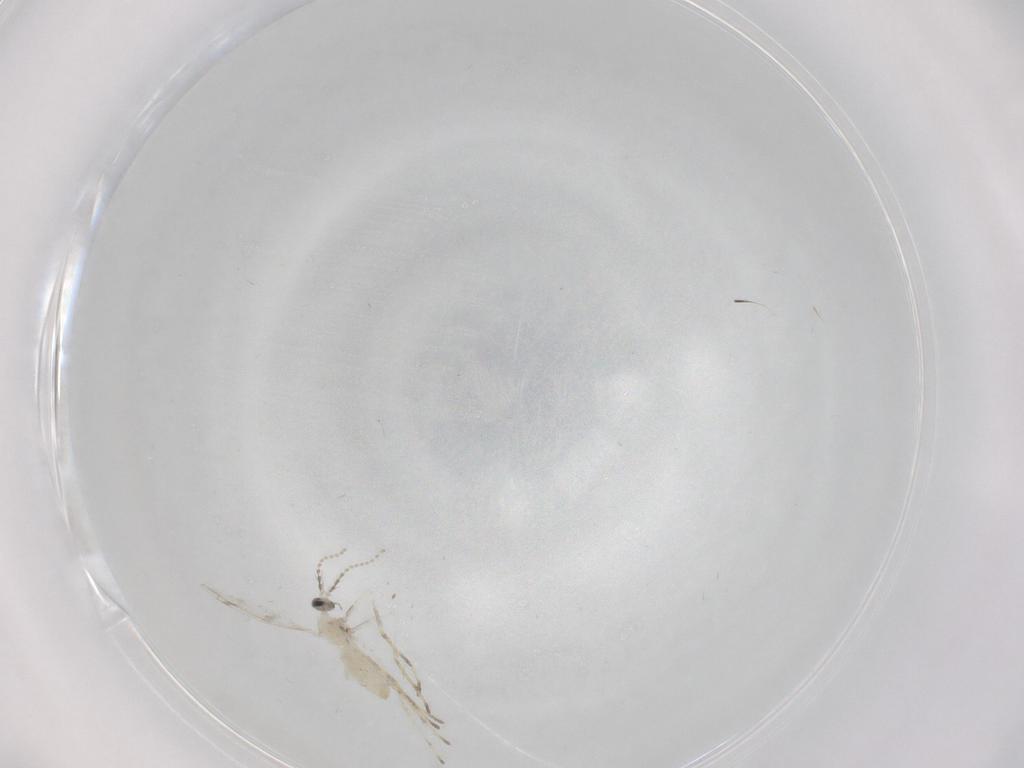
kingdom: Animalia
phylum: Arthropoda
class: Insecta
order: Diptera
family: Cecidomyiidae
